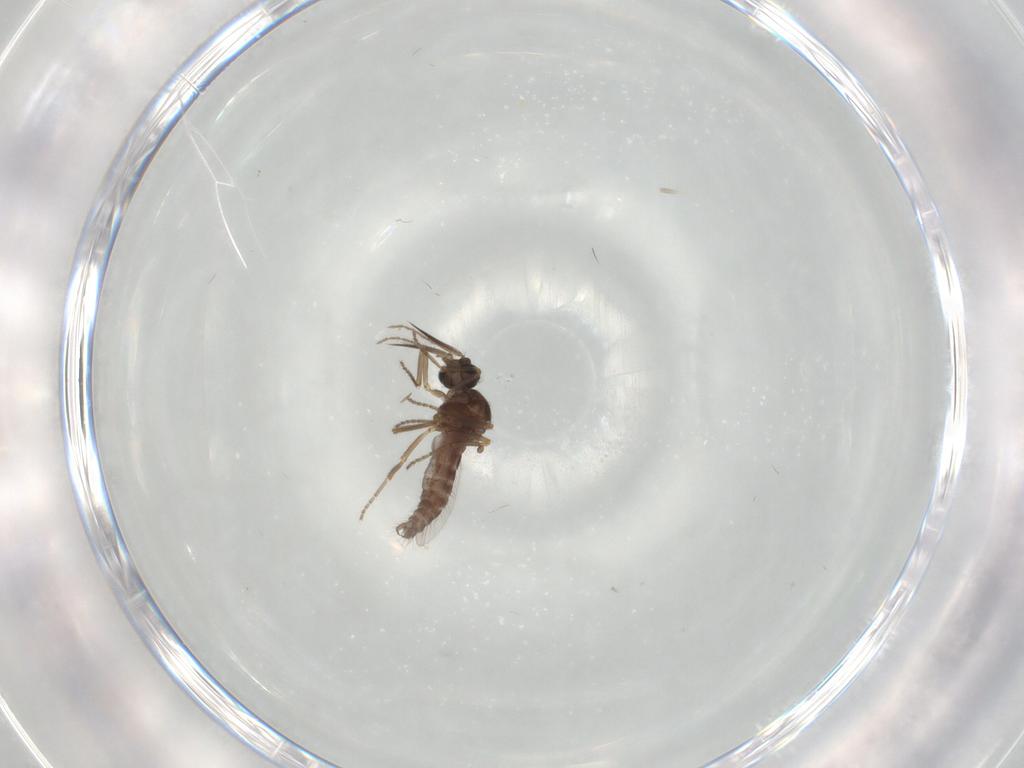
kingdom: Animalia
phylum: Arthropoda
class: Insecta
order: Diptera
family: Ceratopogonidae
